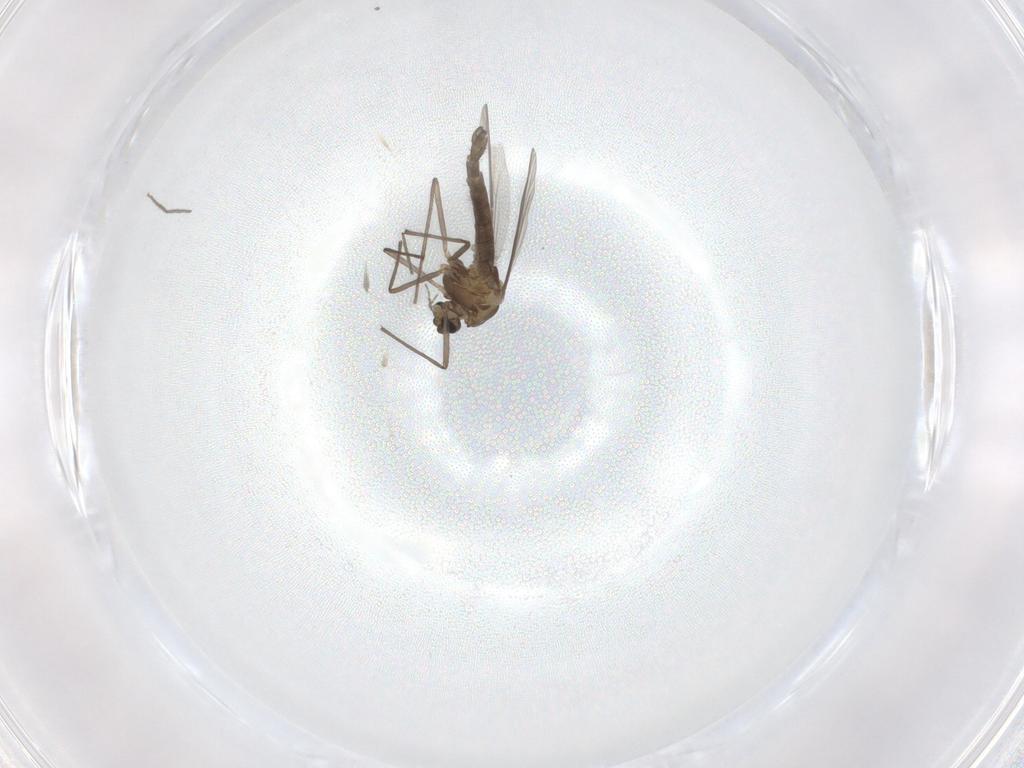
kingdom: Animalia
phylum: Arthropoda
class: Insecta
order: Diptera
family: Chironomidae
